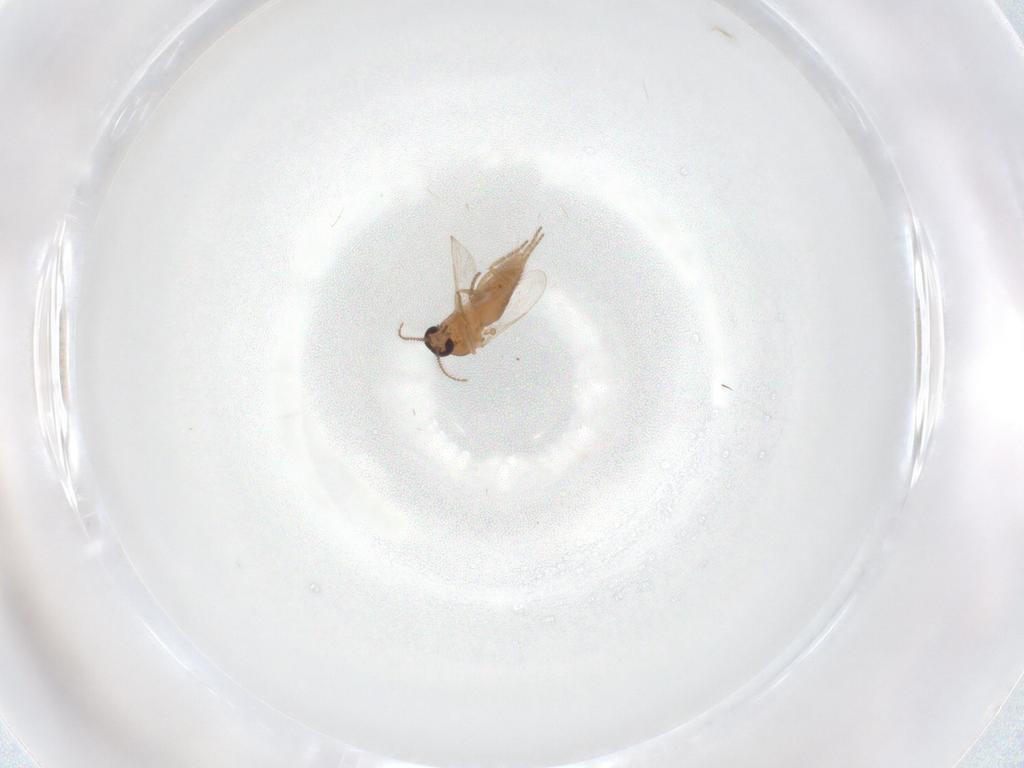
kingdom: Animalia
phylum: Arthropoda
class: Insecta
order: Diptera
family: Ceratopogonidae
